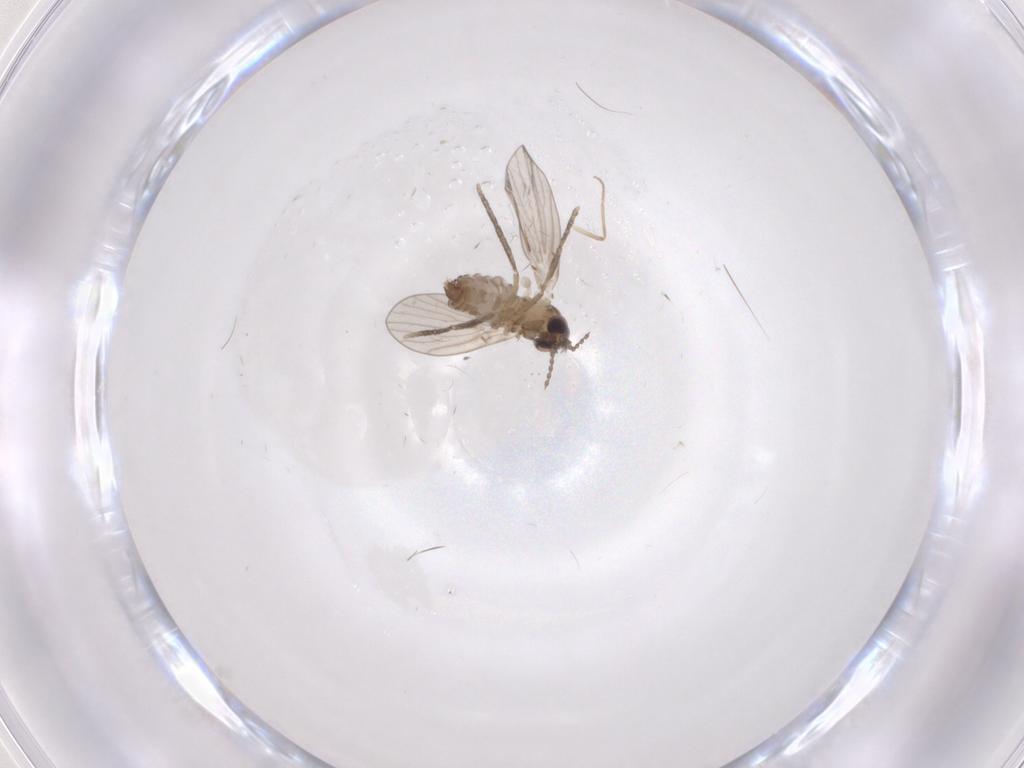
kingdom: Animalia
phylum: Arthropoda
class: Insecta
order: Diptera
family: Psychodidae
